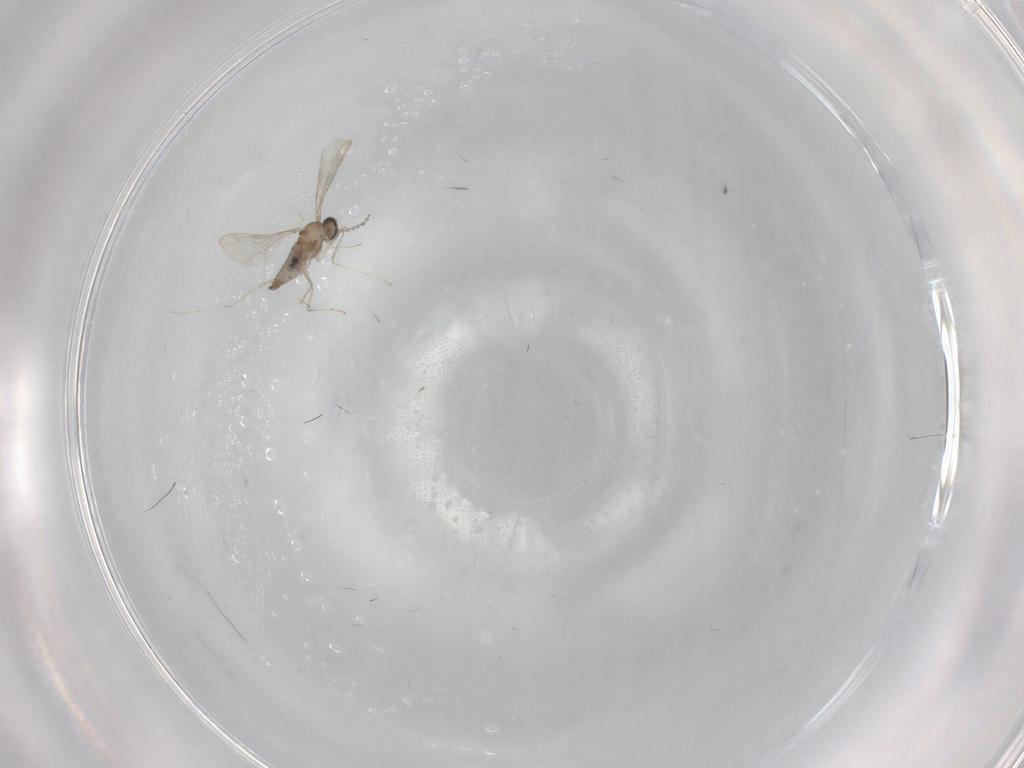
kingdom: Animalia
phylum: Arthropoda
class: Insecta
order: Diptera
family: Cecidomyiidae
